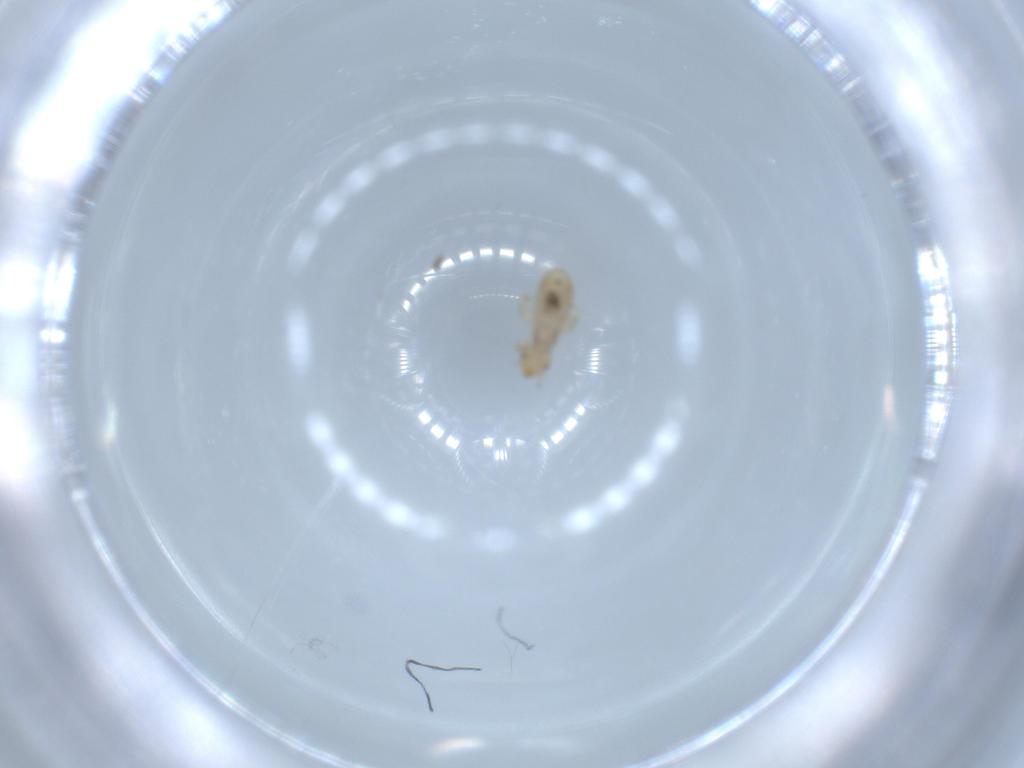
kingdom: Animalia
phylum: Arthropoda
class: Insecta
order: Psocodea
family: Liposcelididae
